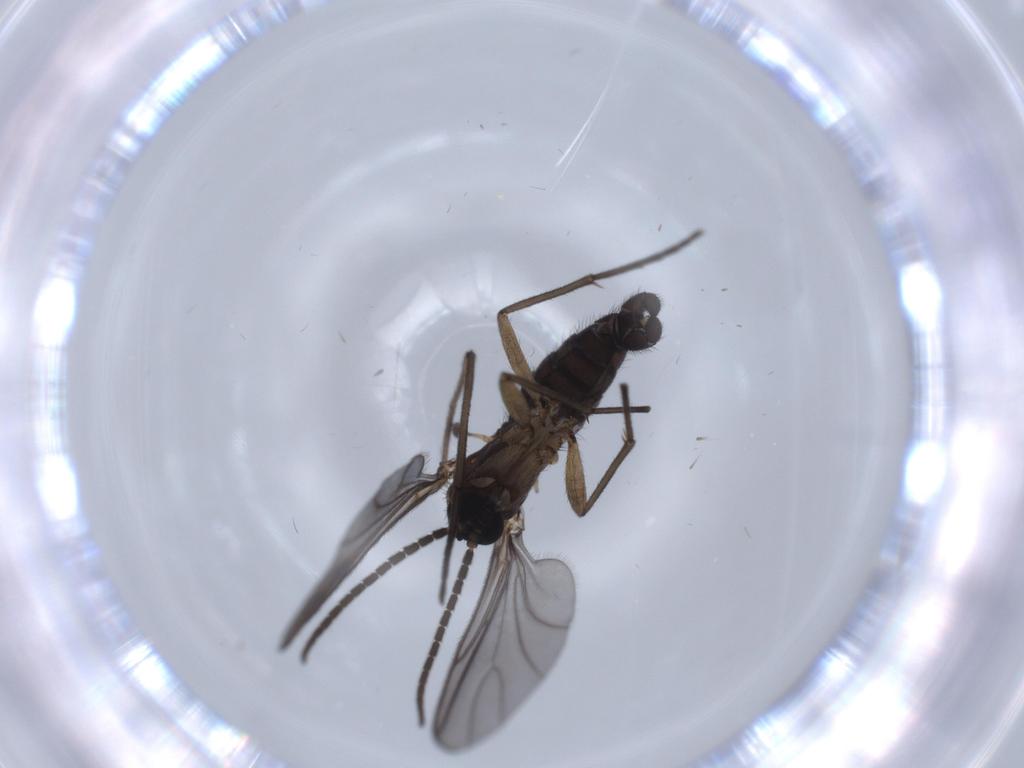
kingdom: Animalia
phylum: Arthropoda
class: Insecta
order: Diptera
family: Sciaridae
